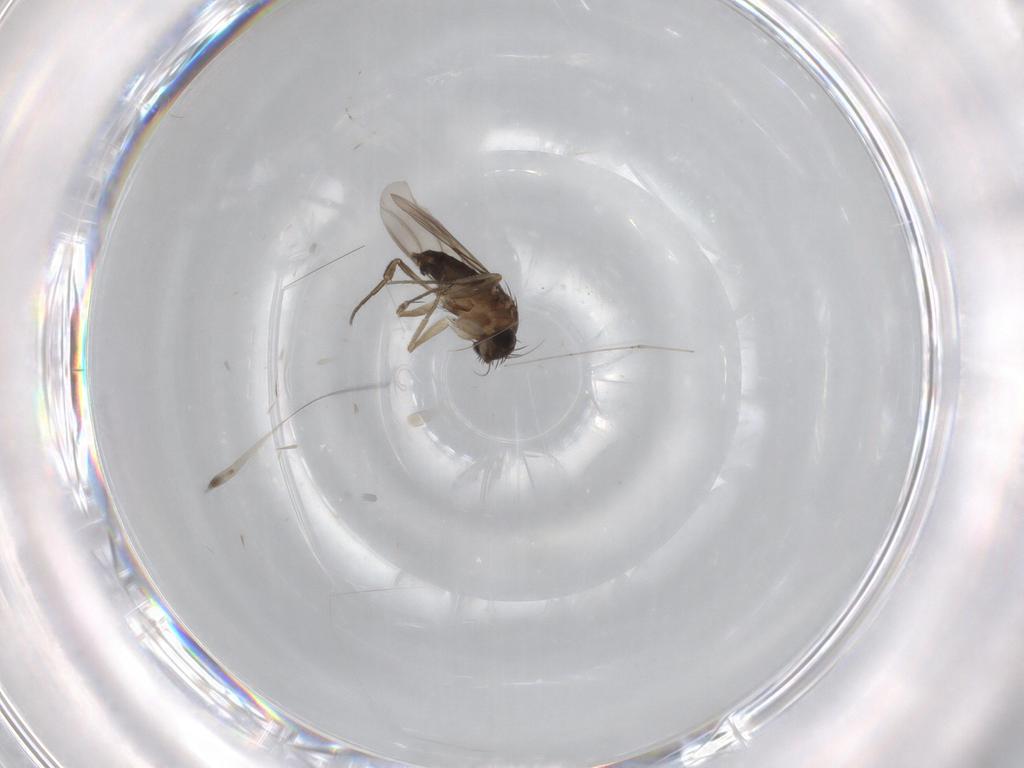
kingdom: Animalia
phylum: Arthropoda
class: Insecta
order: Diptera
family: Phoridae
